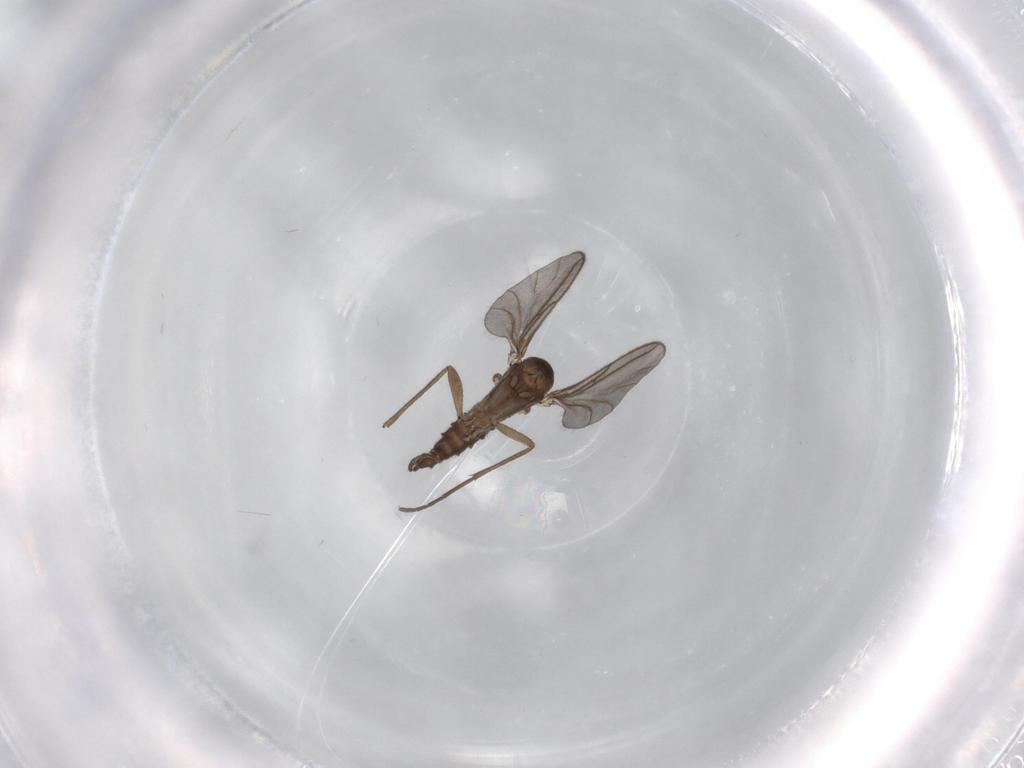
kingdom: Animalia
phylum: Arthropoda
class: Insecta
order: Diptera
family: Sciaridae
